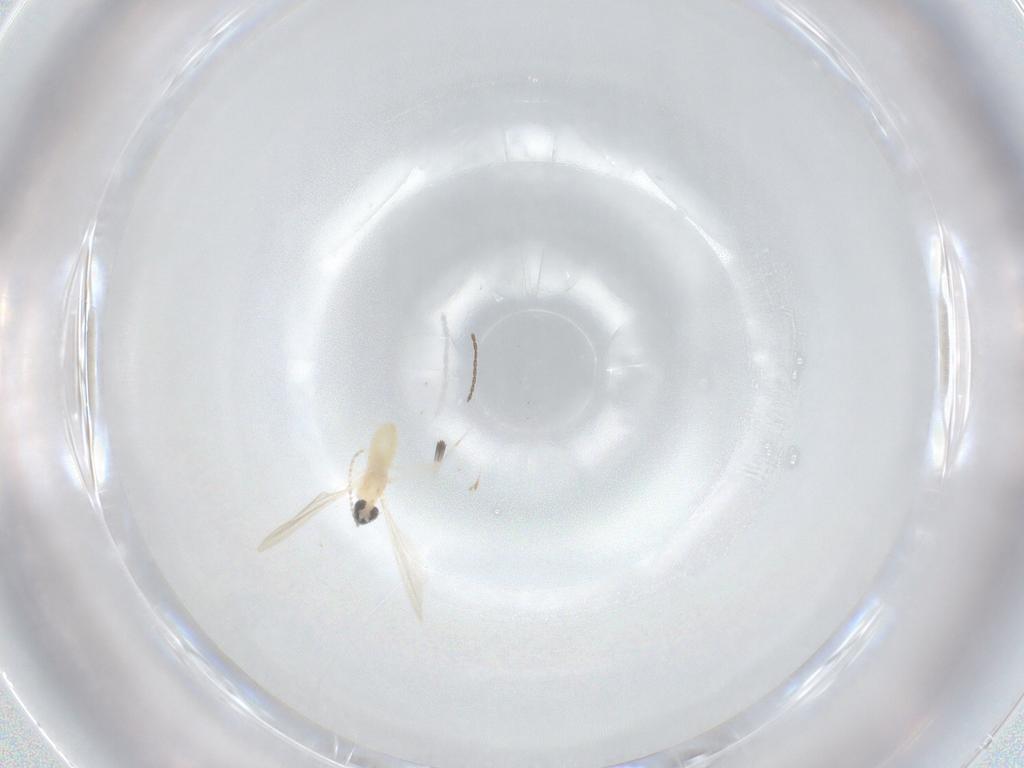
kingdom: Animalia
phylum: Arthropoda
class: Insecta
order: Diptera
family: Cecidomyiidae
